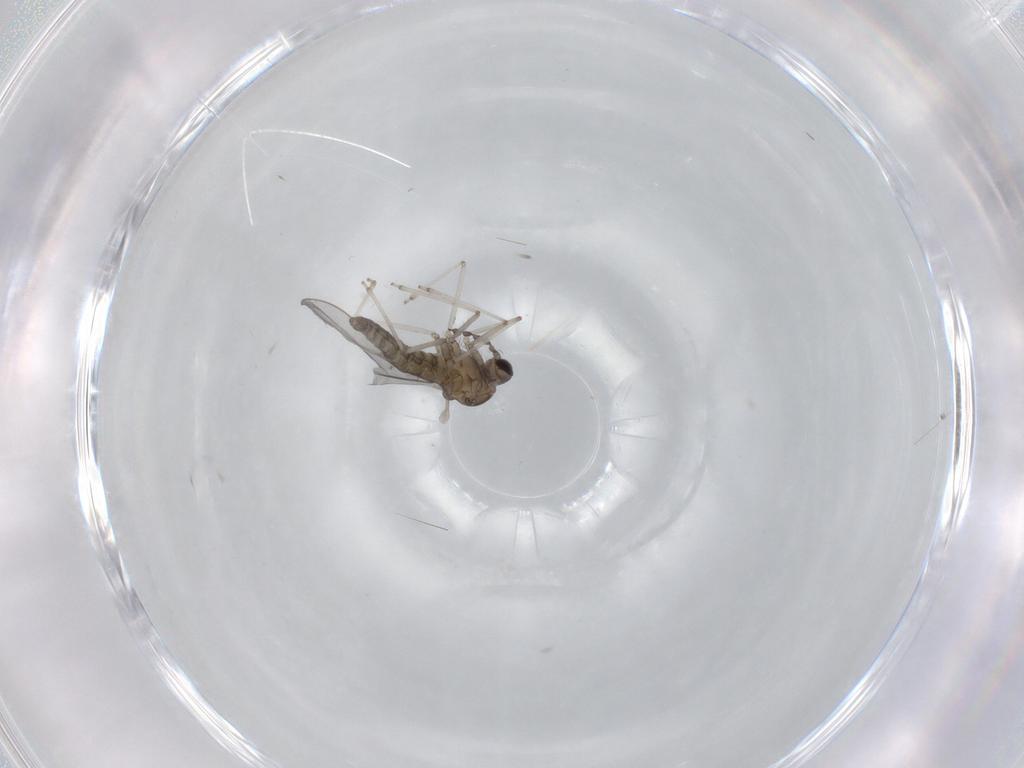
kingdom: Animalia
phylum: Arthropoda
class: Insecta
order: Diptera
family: Cecidomyiidae
